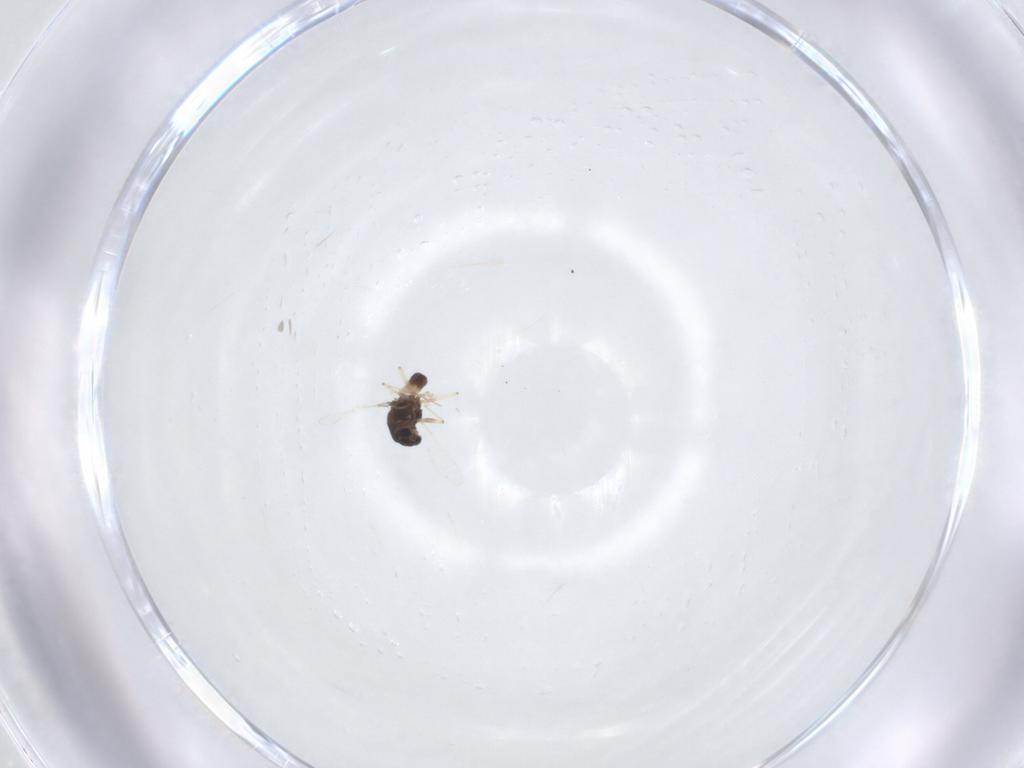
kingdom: Animalia
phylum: Arthropoda
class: Insecta
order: Diptera
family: Chironomidae
